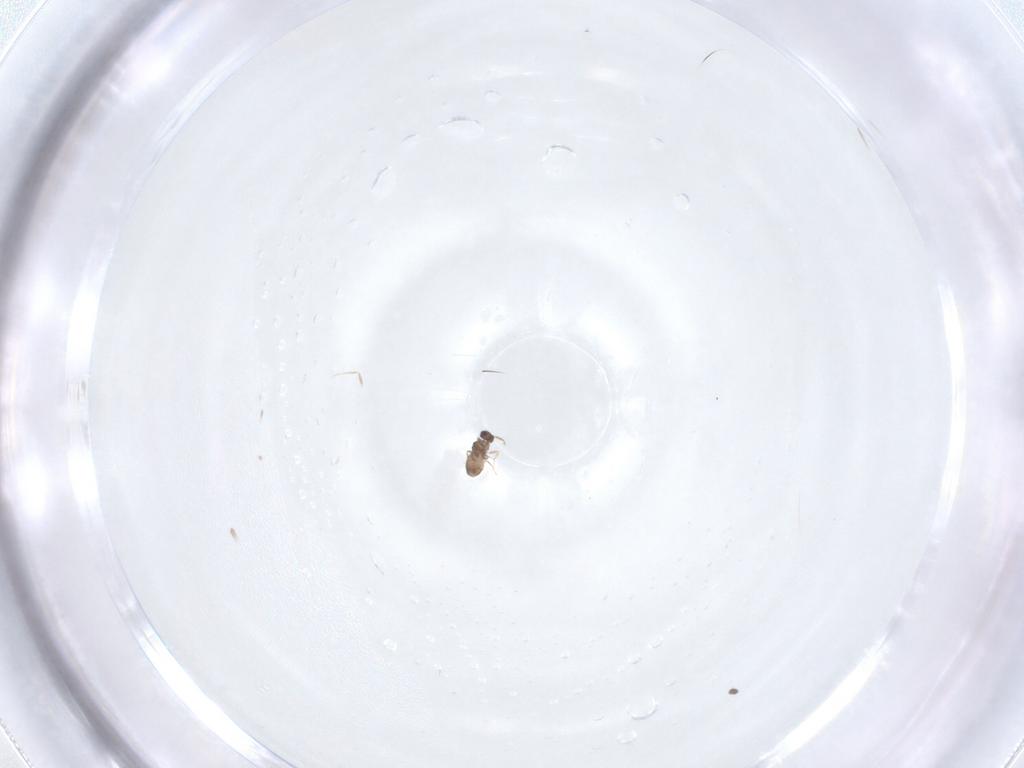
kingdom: Animalia
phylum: Arthropoda
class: Insecta
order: Hymenoptera
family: Mymaridae
